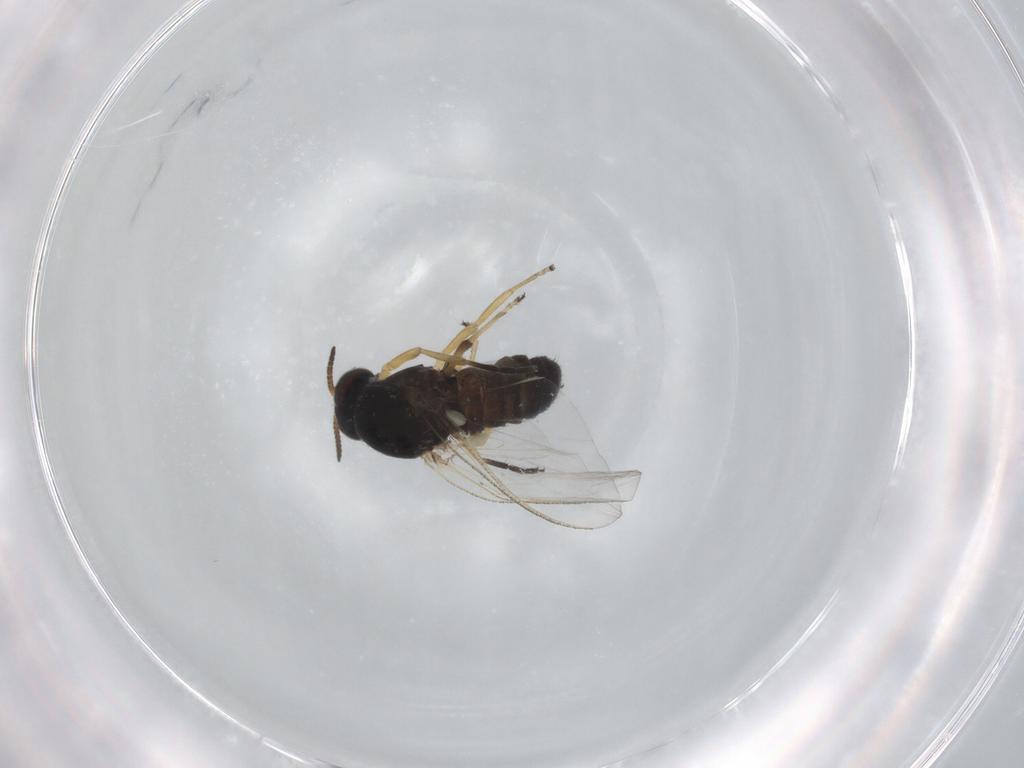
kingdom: Animalia
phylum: Arthropoda
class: Insecta
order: Diptera
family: Simuliidae
